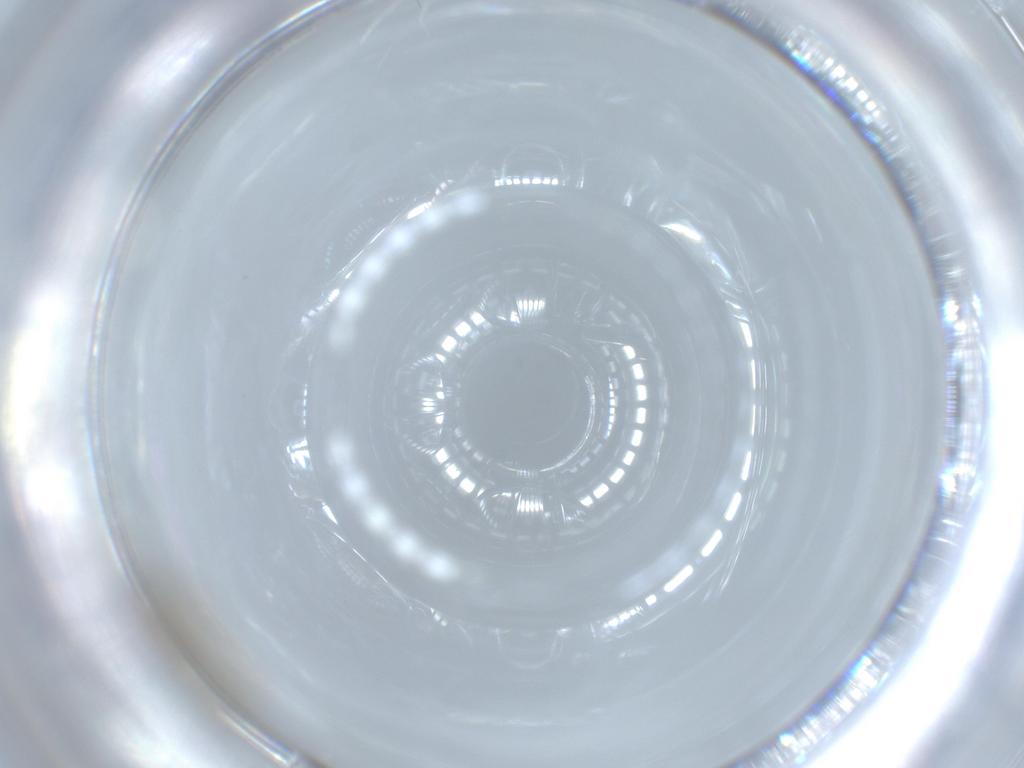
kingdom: Animalia
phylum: Arthropoda
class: Insecta
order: Diptera
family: Chironomidae
